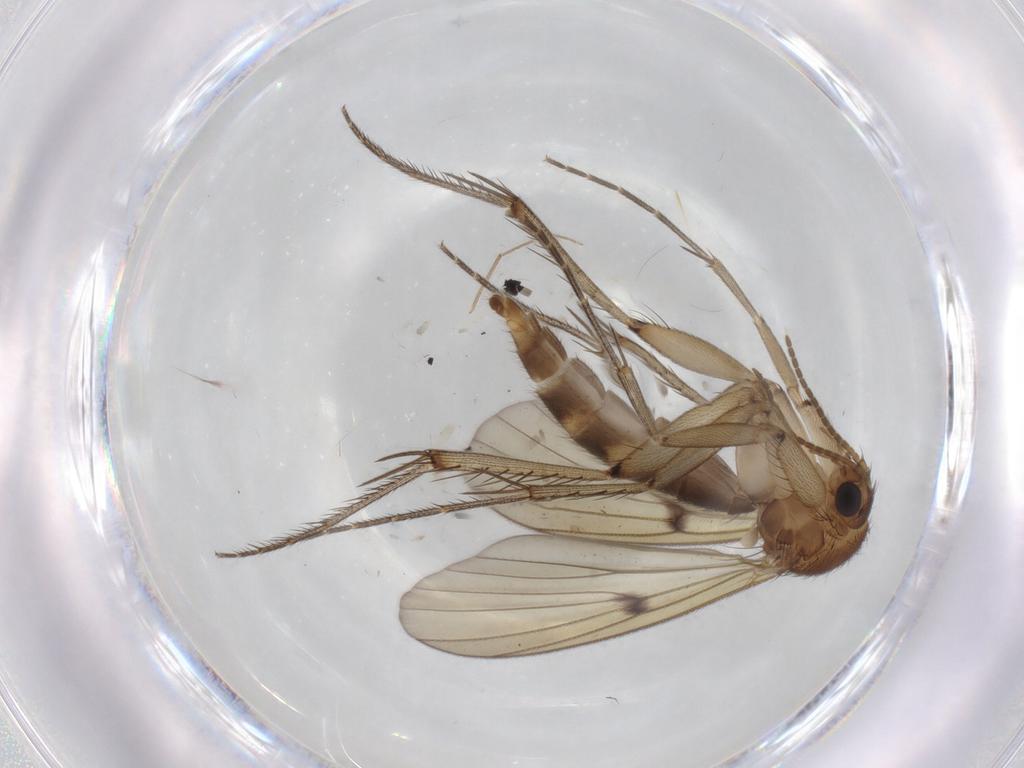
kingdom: Animalia
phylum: Arthropoda
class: Insecta
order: Diptera
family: Mycetophilidae
